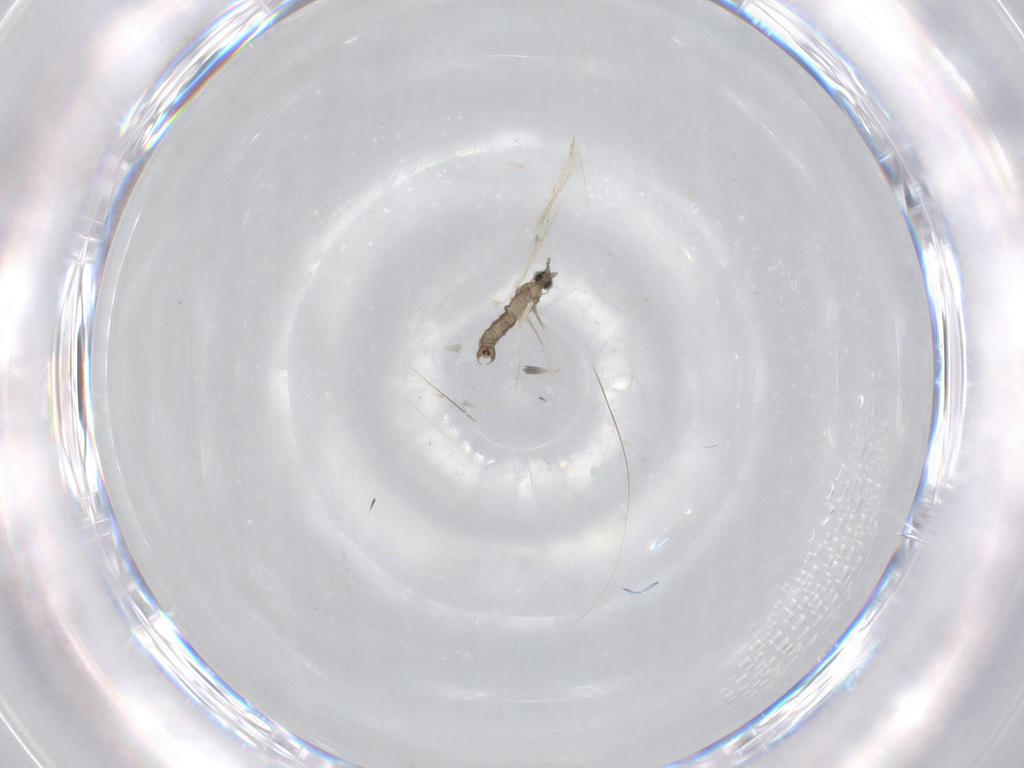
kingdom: Animalia
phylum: Arthropoda
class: Insecta
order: Diptera
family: Cecidomyiidae
